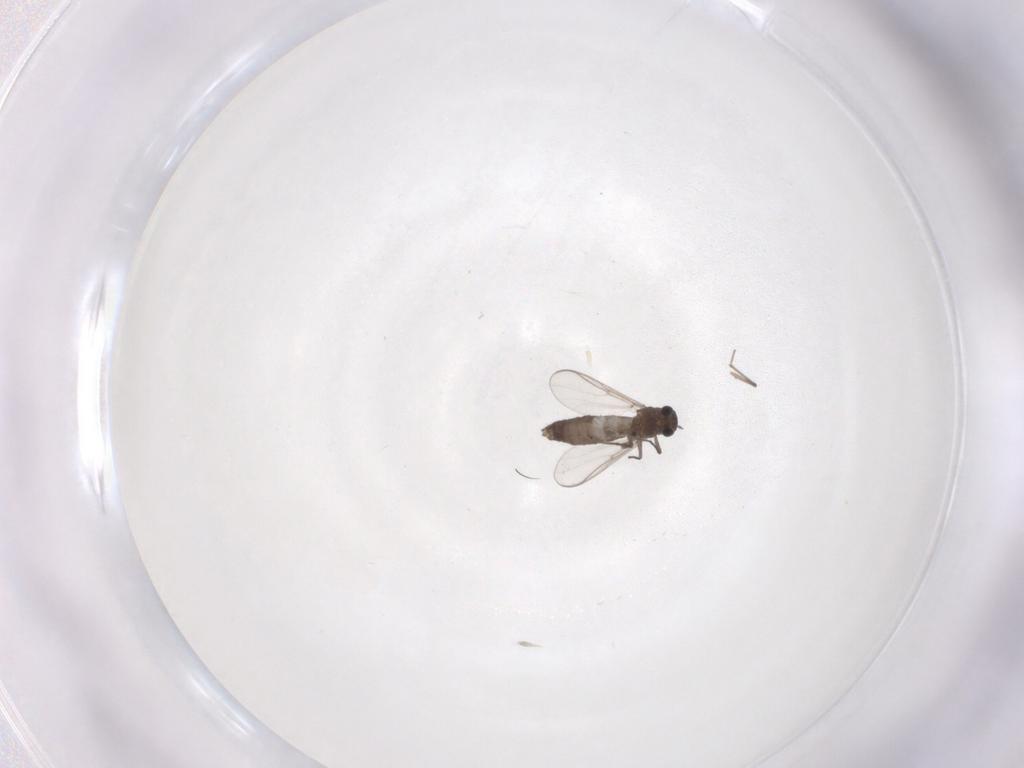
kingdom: Animalia
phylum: Arthropoda
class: Insecta
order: Diptera
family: Chironomidae
